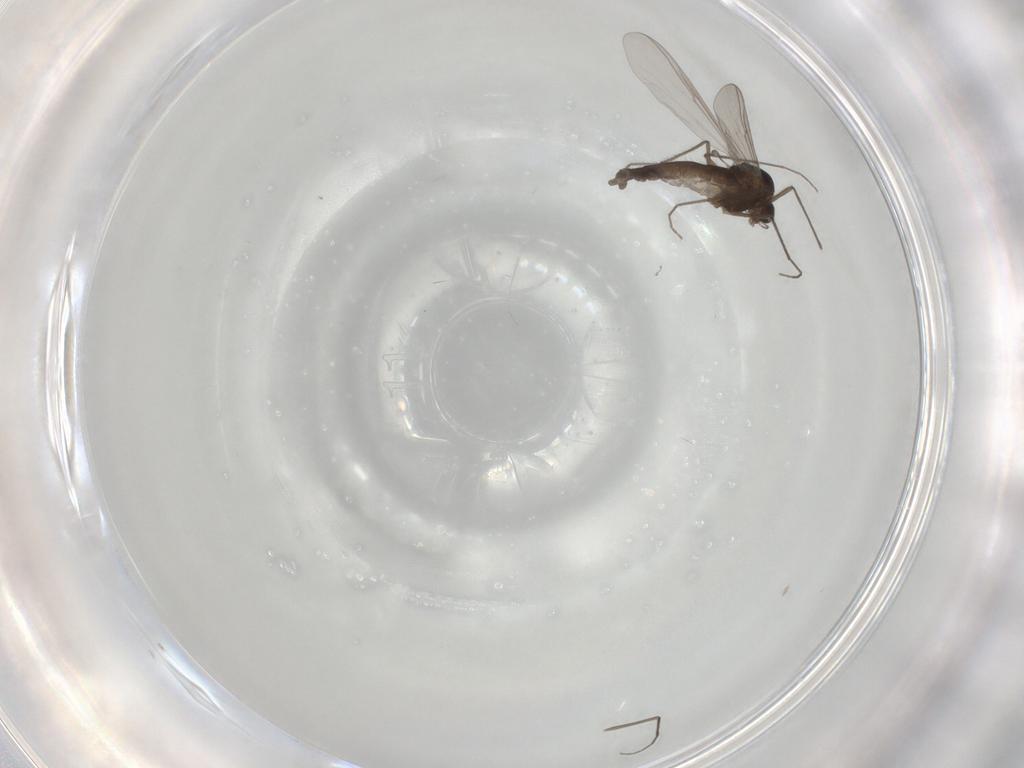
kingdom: Animalia
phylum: Arthropoda
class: Insecta
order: Diptera
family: Chironomidae
